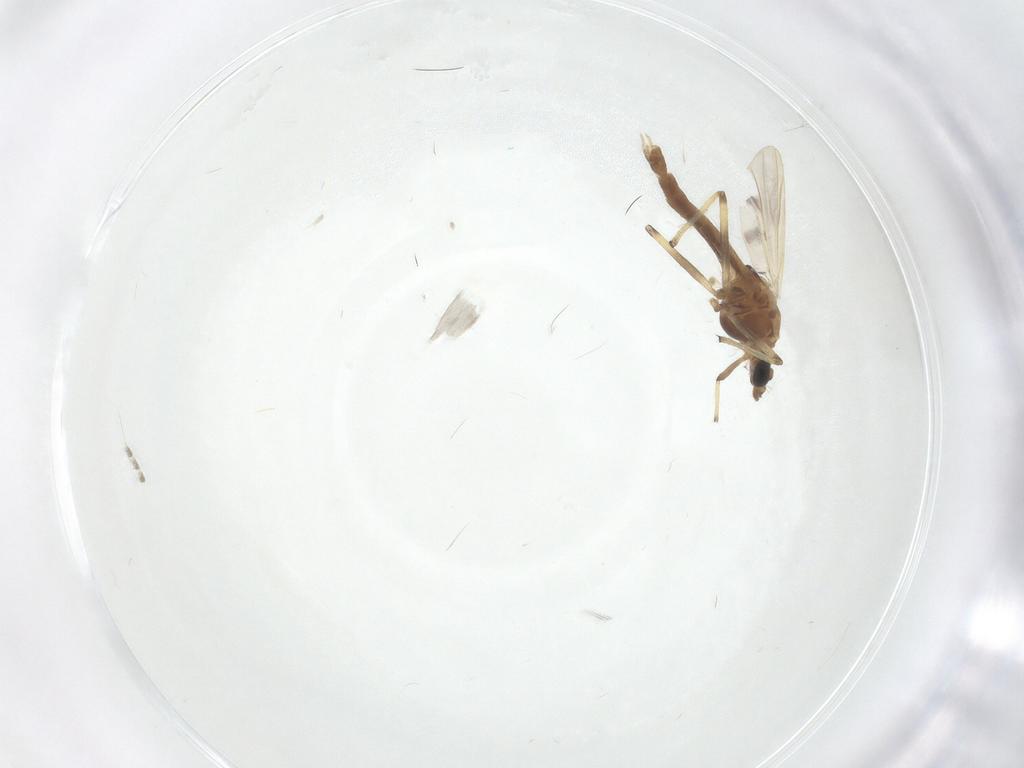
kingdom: Animalia
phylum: Arthropoda
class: Insecta
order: Diptera
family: Chironomidae
